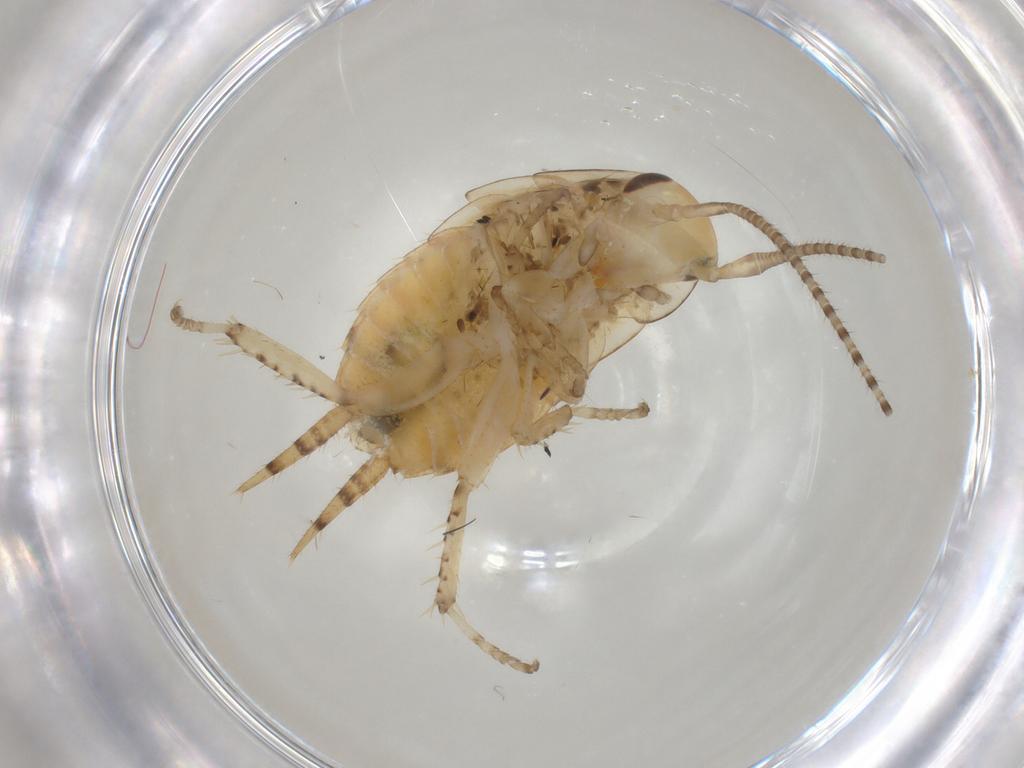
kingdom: Animalia
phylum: Arthropoda
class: Insecta
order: Blattodea
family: Ectobiidae
